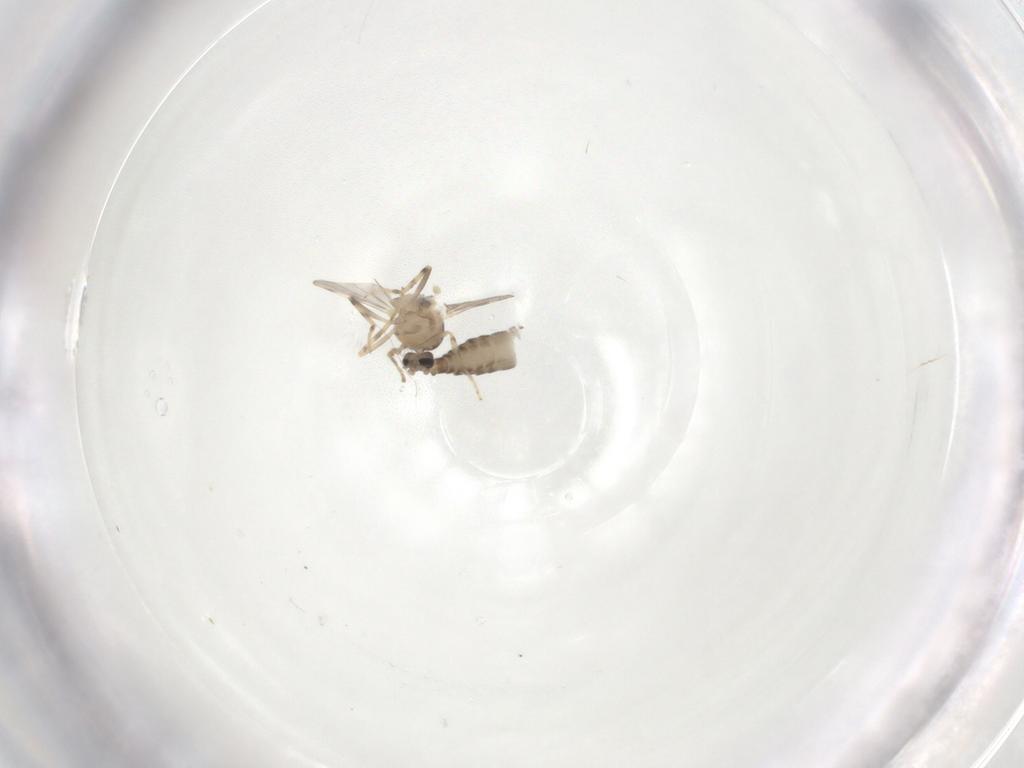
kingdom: Animalia
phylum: Arthropoda
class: Insecta
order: Diptera
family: Ceratopogonidae
